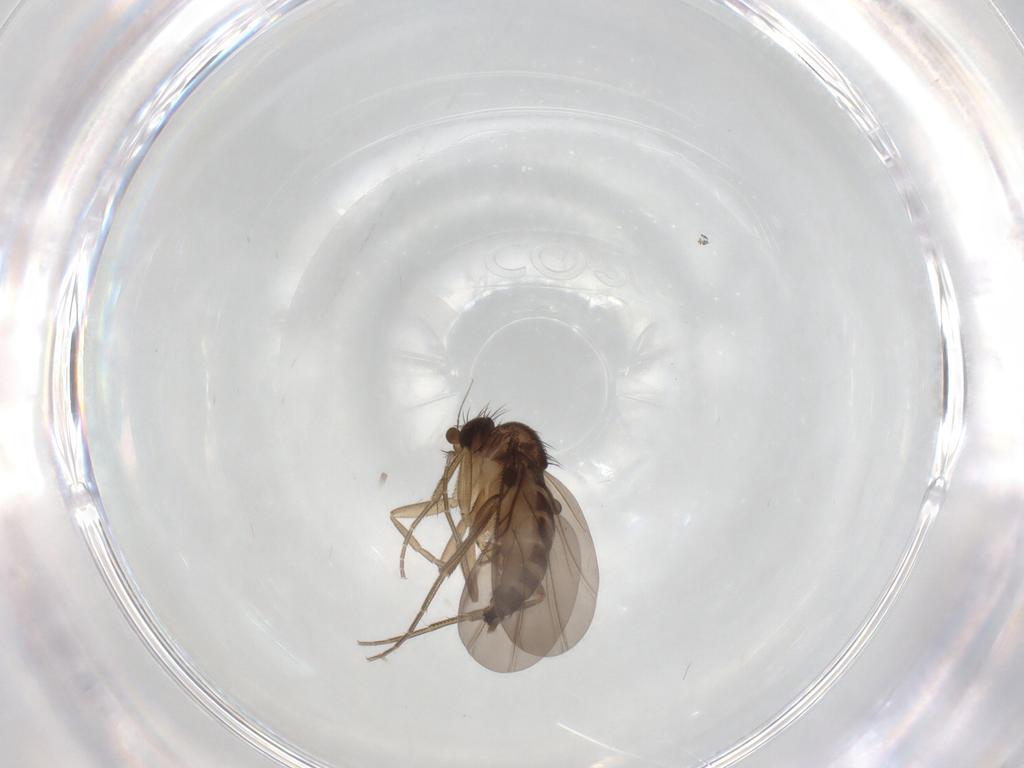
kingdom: Animalia
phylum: Arthropoda
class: Insecta
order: Diptera
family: Phoridae
